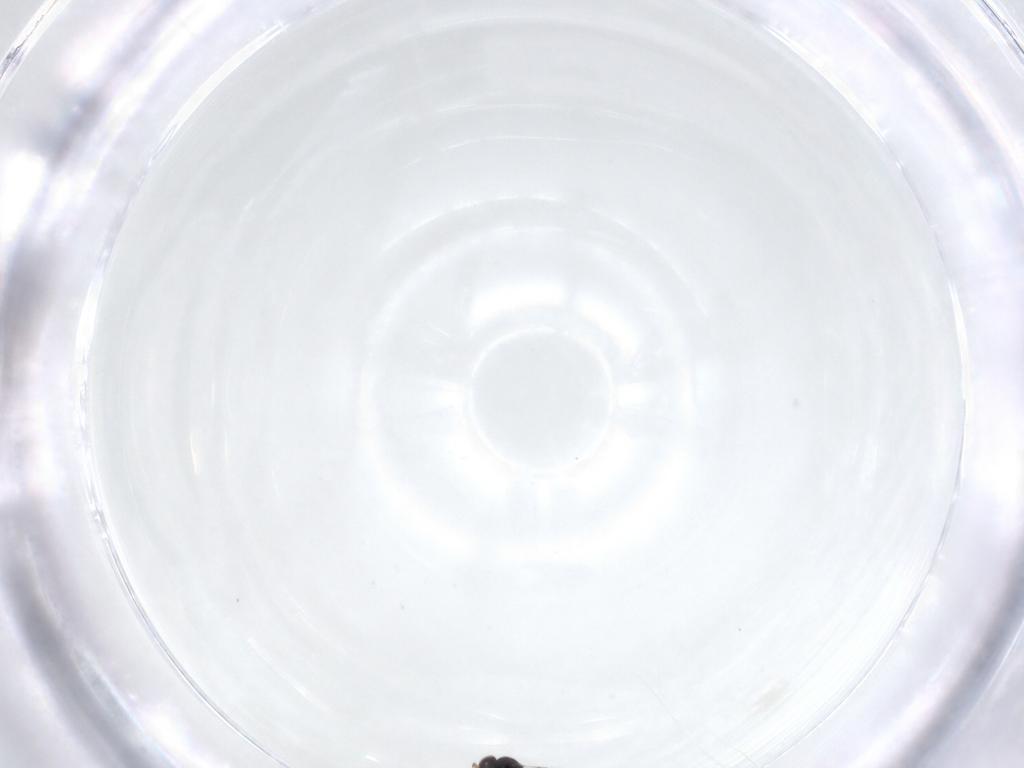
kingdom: Animalia
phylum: Arthropoda
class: Insecta
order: Diptera
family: Chironomidae
